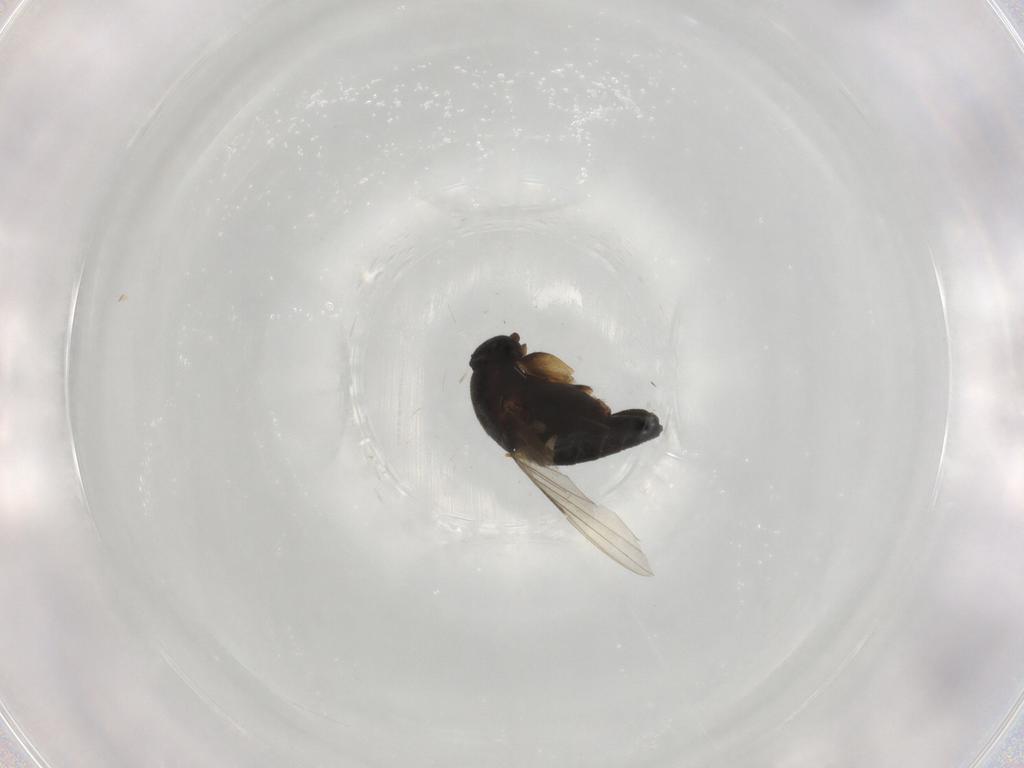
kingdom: Animalia
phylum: Arthropoda
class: Insecta
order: Diptera
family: Phoridae
